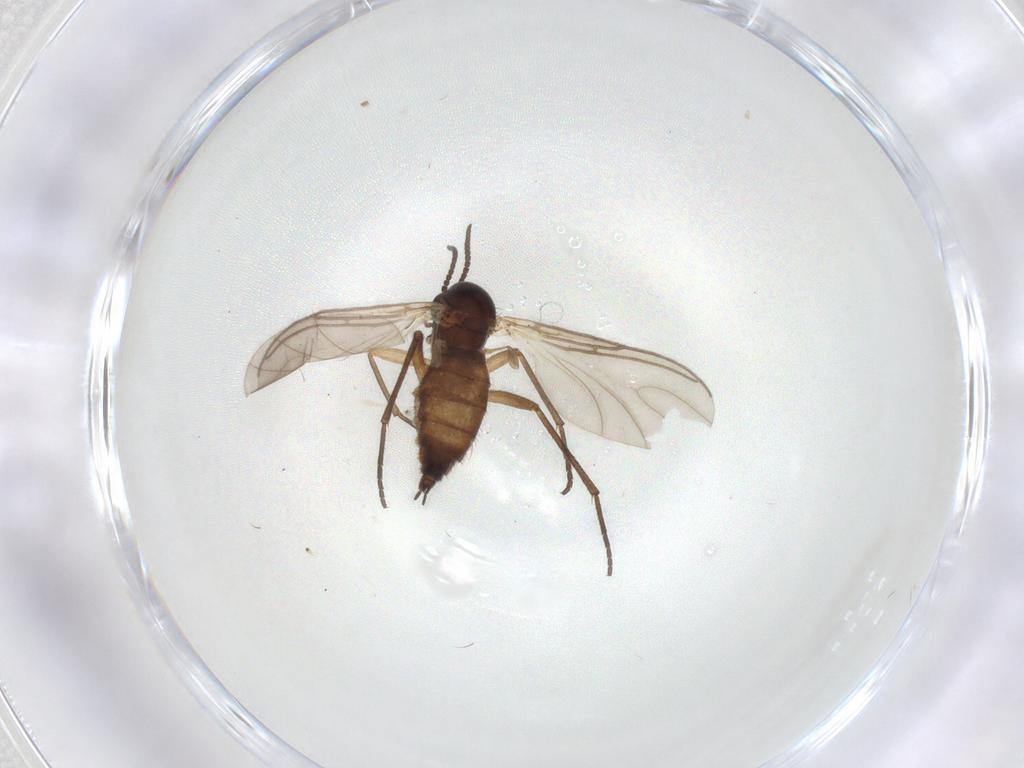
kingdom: Animalia
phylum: Arthropoda
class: Insecta
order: Diptera
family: Sciaridae
